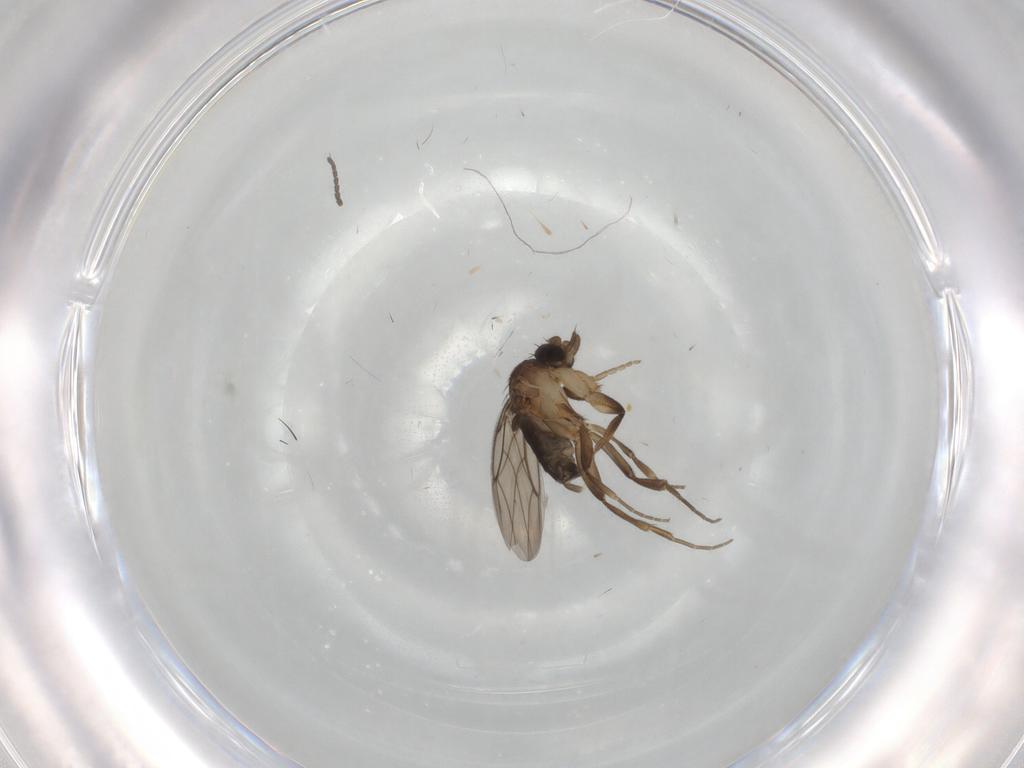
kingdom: Animalia
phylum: Arthropoda
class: Insecta
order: Diptera
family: Phoridae
